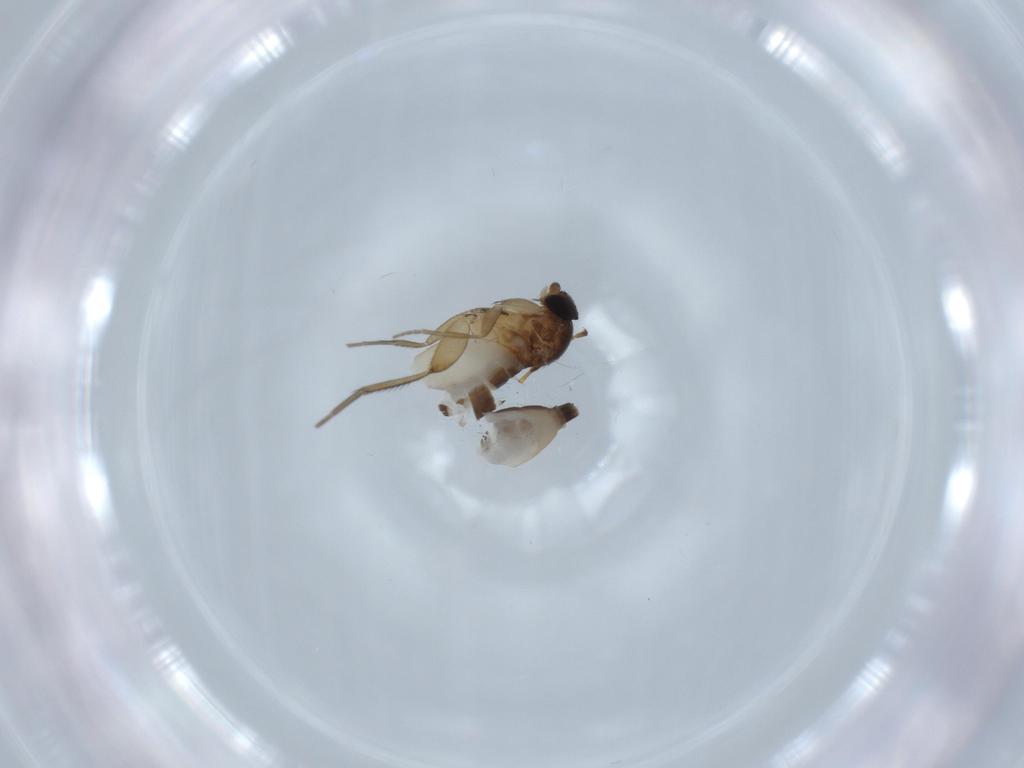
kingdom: Animalia
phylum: Arthropoda
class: Insecta
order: Diptera
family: Phoridae
